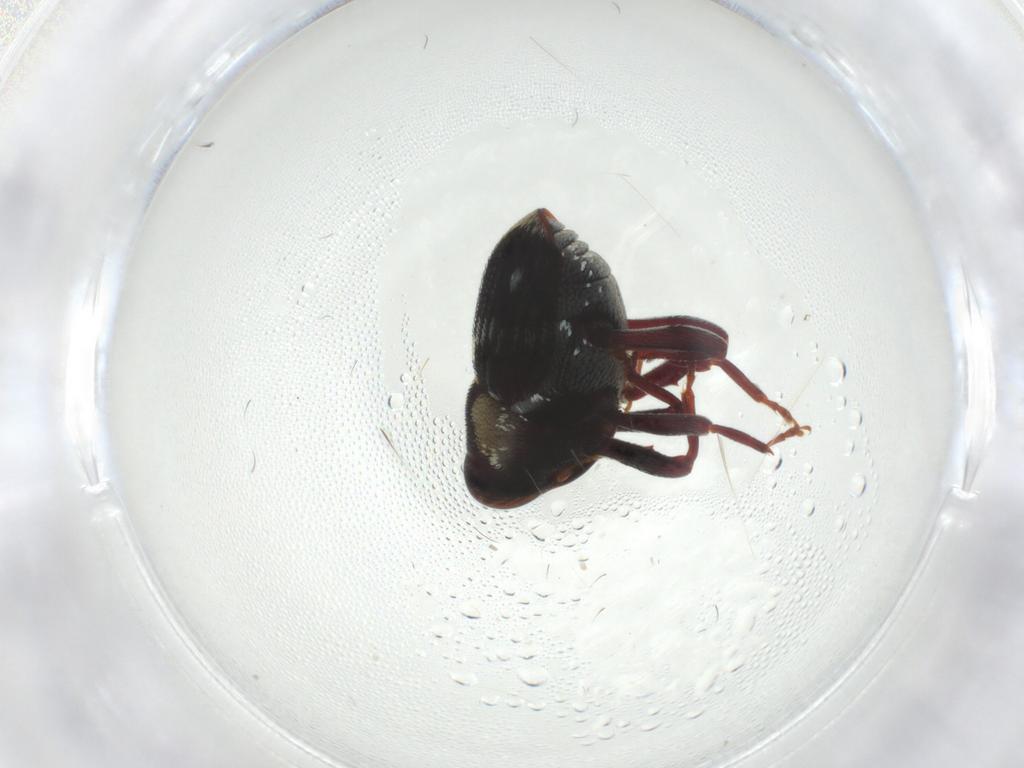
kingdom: Animalia
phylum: Arthropoda
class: Insecta
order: Coleoptera
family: Curculionidae
